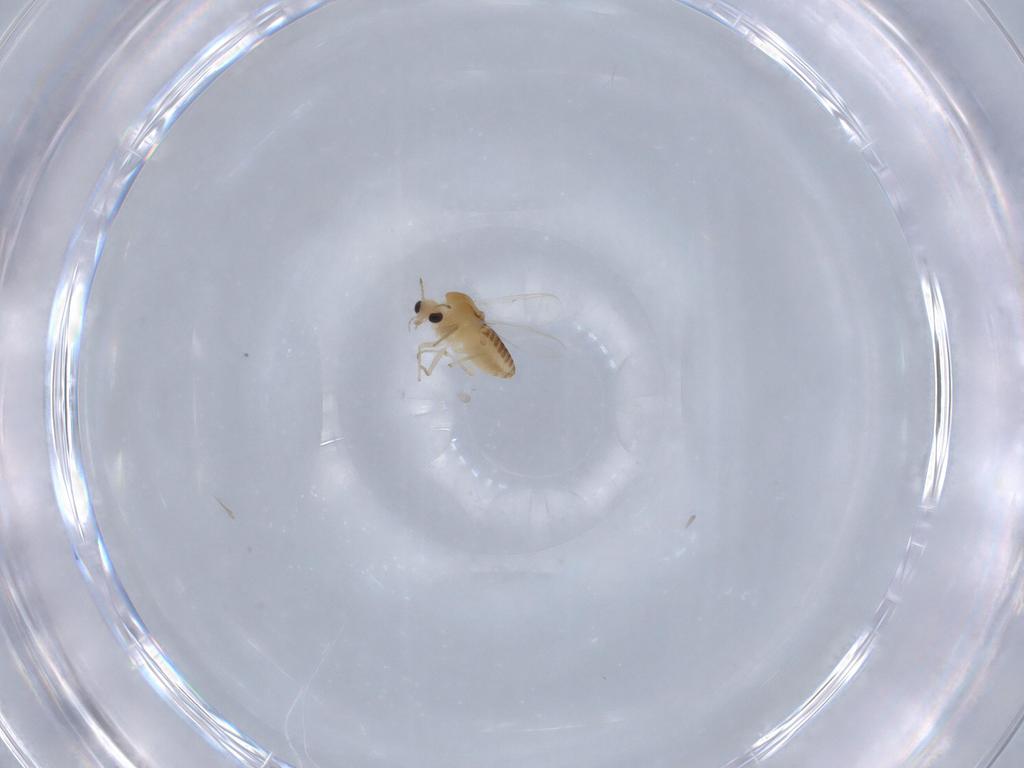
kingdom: Animalia
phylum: Arthropoda
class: Insecta
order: Diptera
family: Chironomidae
